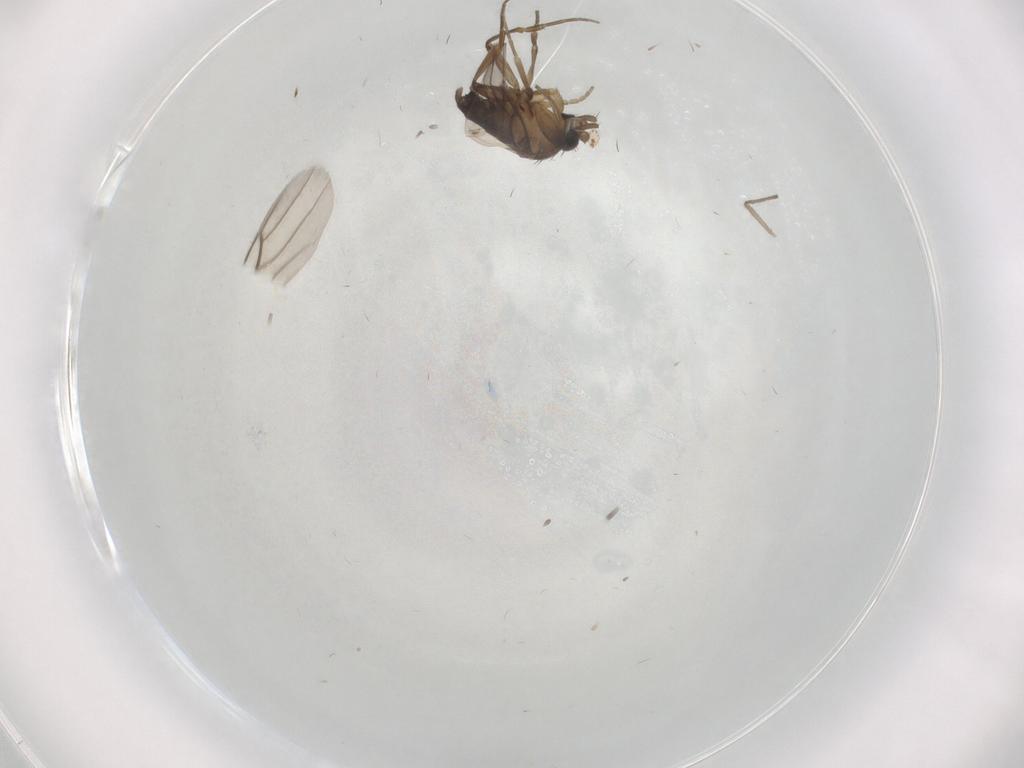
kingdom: Animalia
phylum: Arthropoda
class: Insecta
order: Diptera
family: Phoridae
